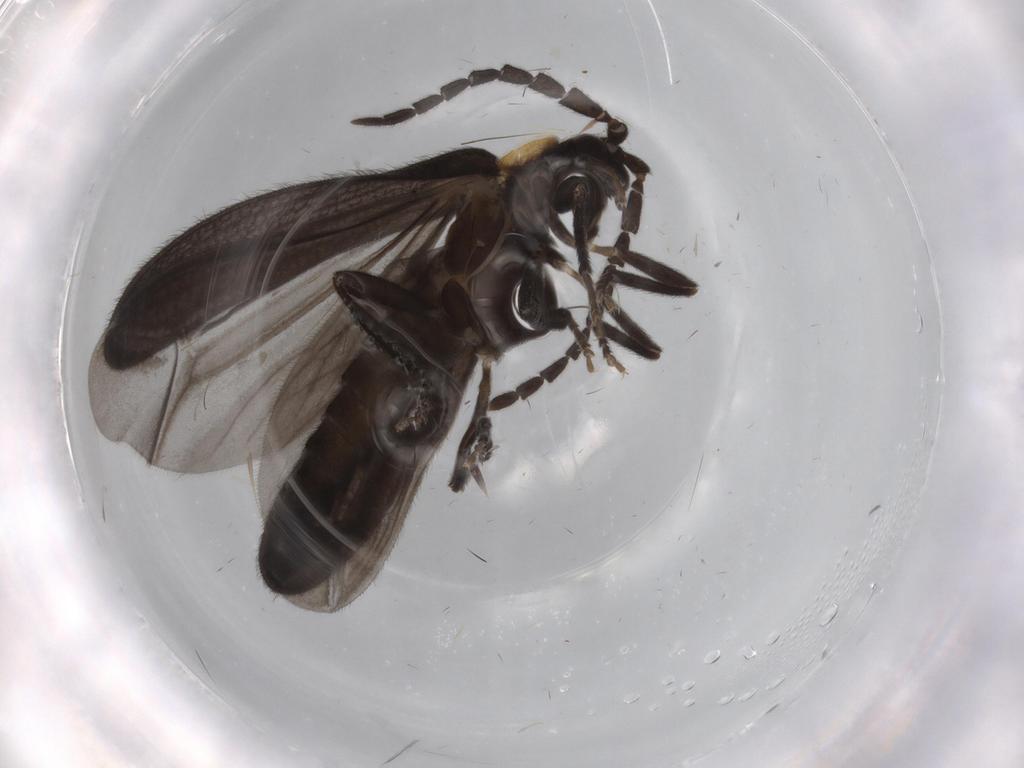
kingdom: Animalia
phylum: Arthropoda
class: Insecta
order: Coleoptera
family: Lycidae
